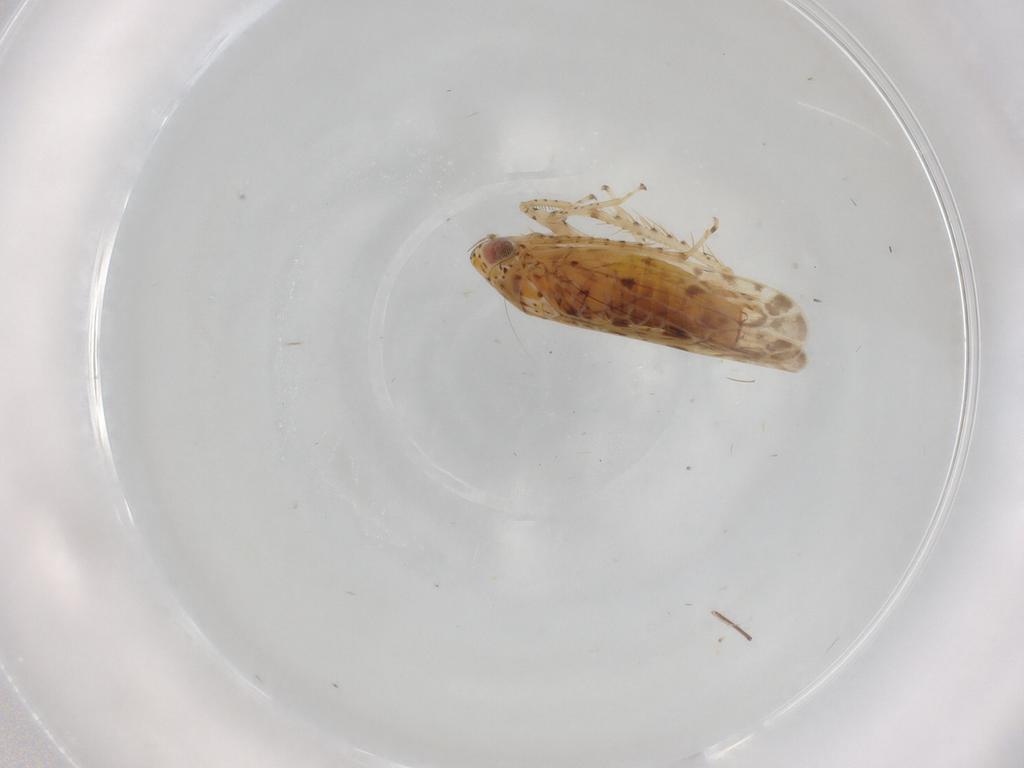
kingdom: Animalia
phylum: Arthropoda
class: Insecta
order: Hemiptera
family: Cicadellidae
